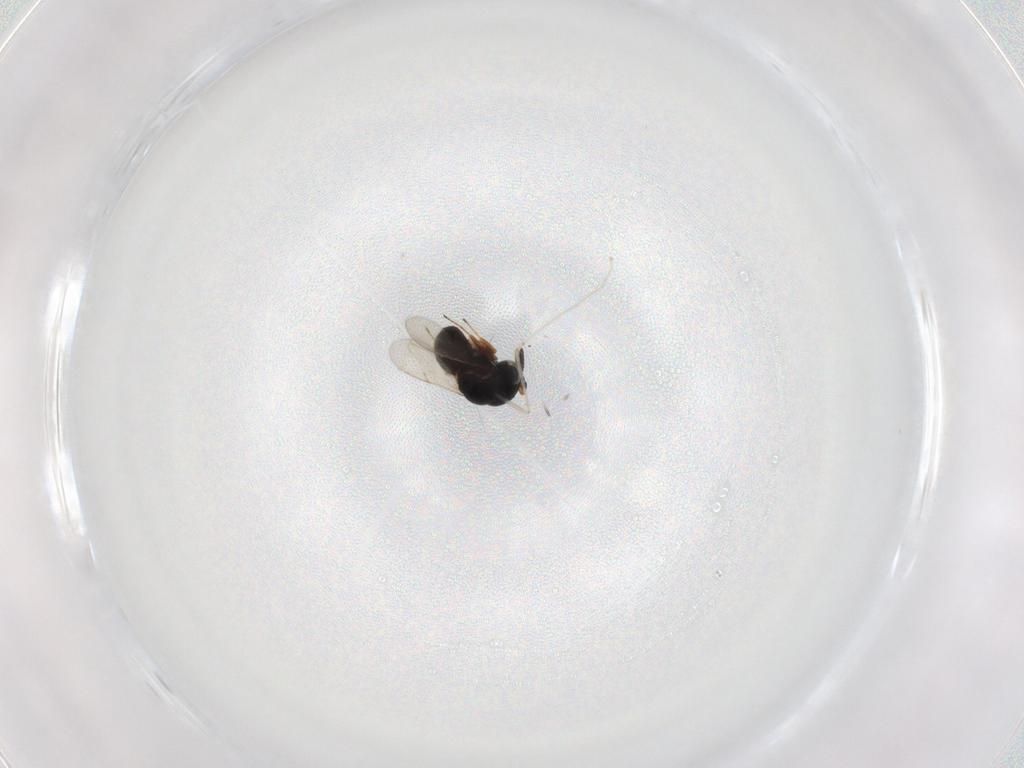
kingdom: Animalia
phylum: Arthropoda
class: Insecta
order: Hymenoptera
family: Scelionidae
